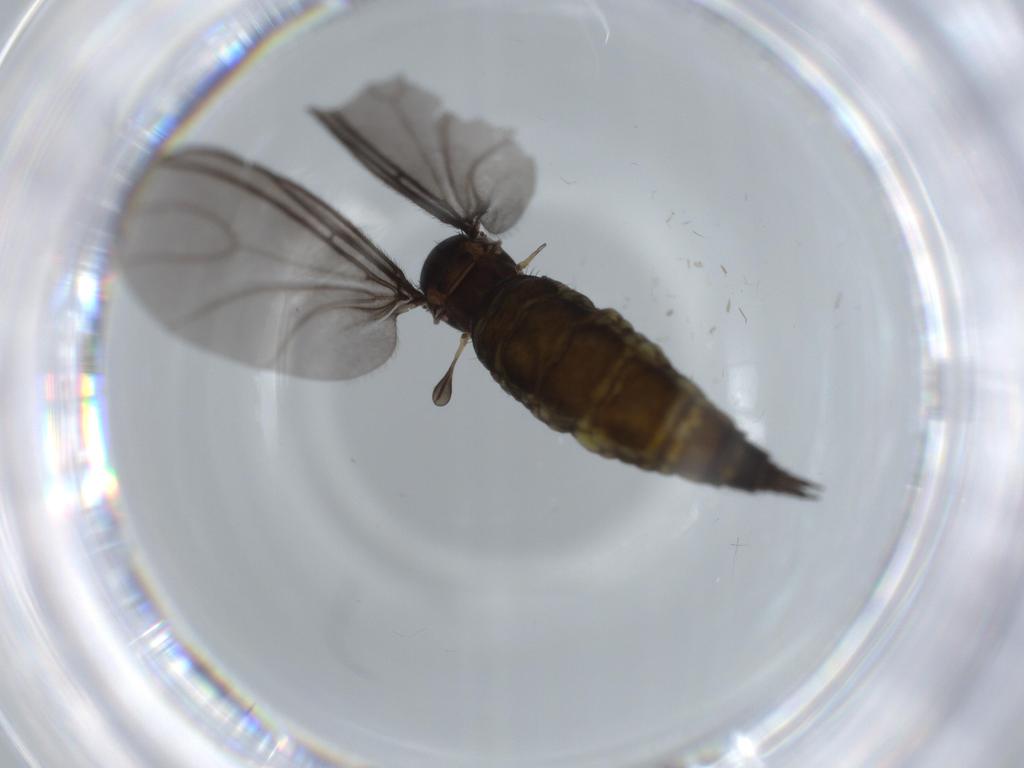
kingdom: Animalia
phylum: Arthropoda
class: Insecta
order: Diptera
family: Sciaridae
